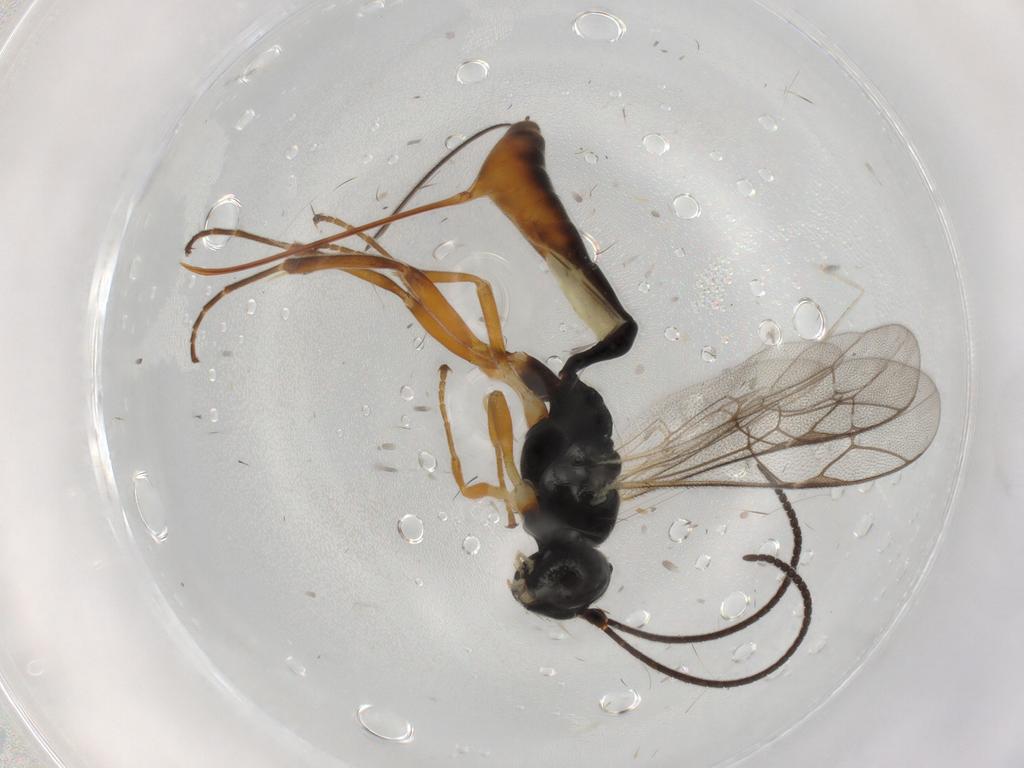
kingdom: Animalia
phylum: Arthropoda
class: Insecta
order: Hymenoptera
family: Ichneumonidae
